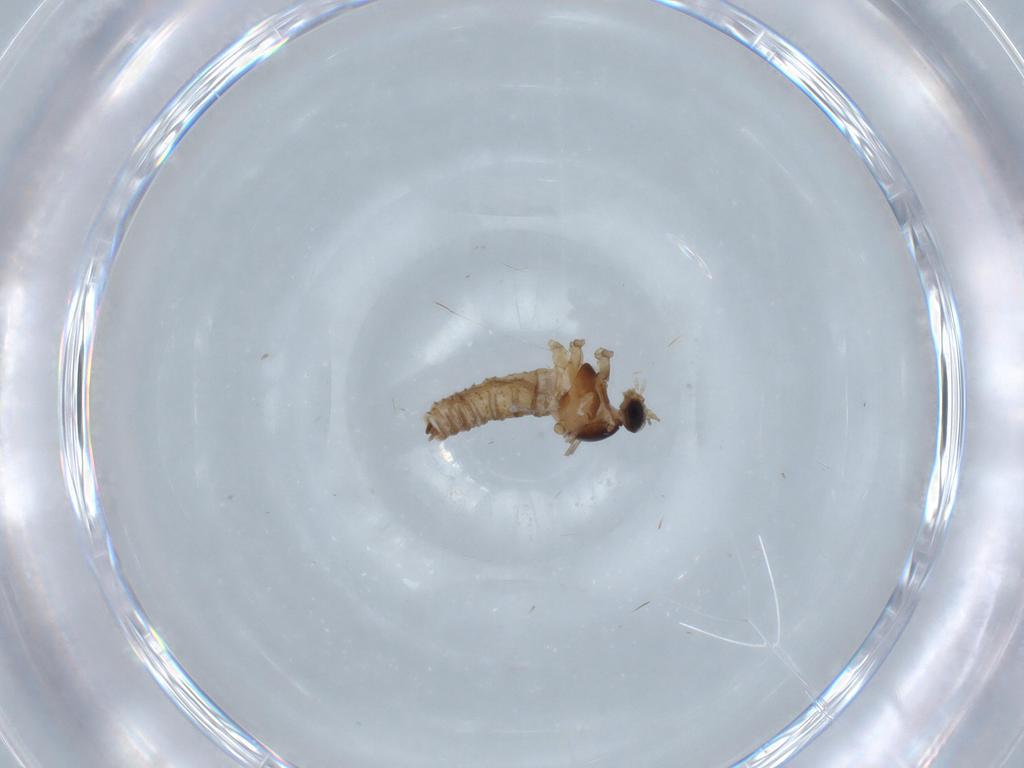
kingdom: Animalia
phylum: Arthropoda
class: Insecta
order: Diptera
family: Cecidomyiidae
